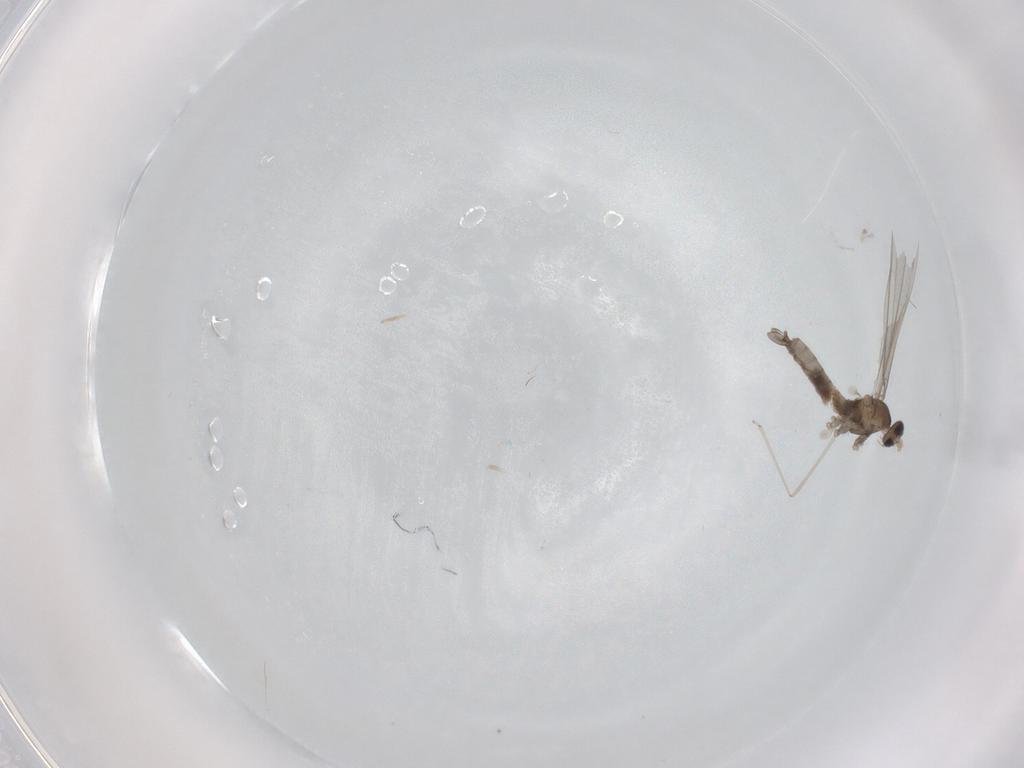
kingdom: Animalia
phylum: Arthropoda
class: Insecta
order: Diptera
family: Cecidomyiidae
